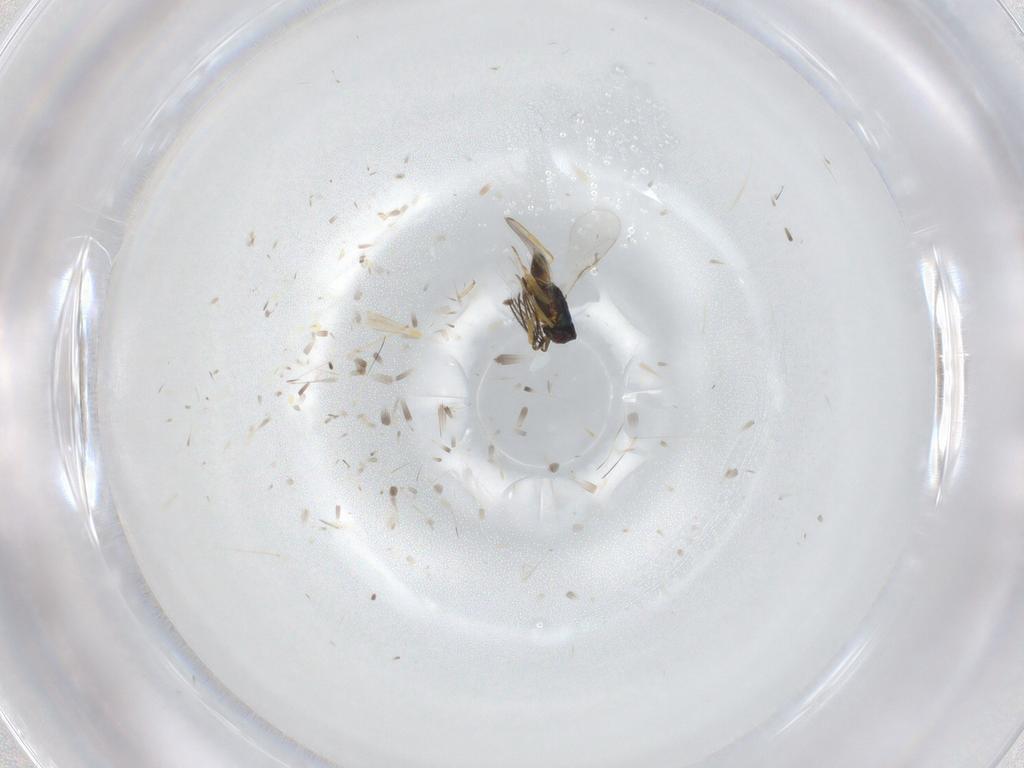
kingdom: Animalia
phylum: Arthropoda
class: Insecta
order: Hymenoptera
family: Encyrtidae
